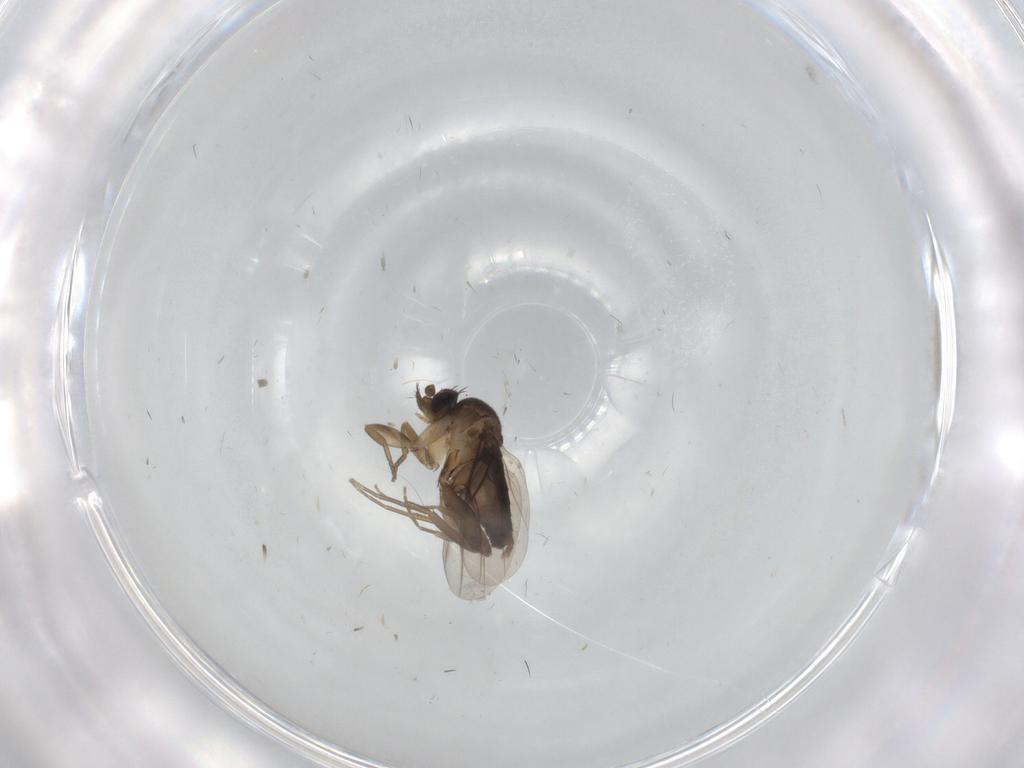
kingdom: Animalia
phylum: Arthropoda
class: Insecta
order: Diptera
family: Phoridae
